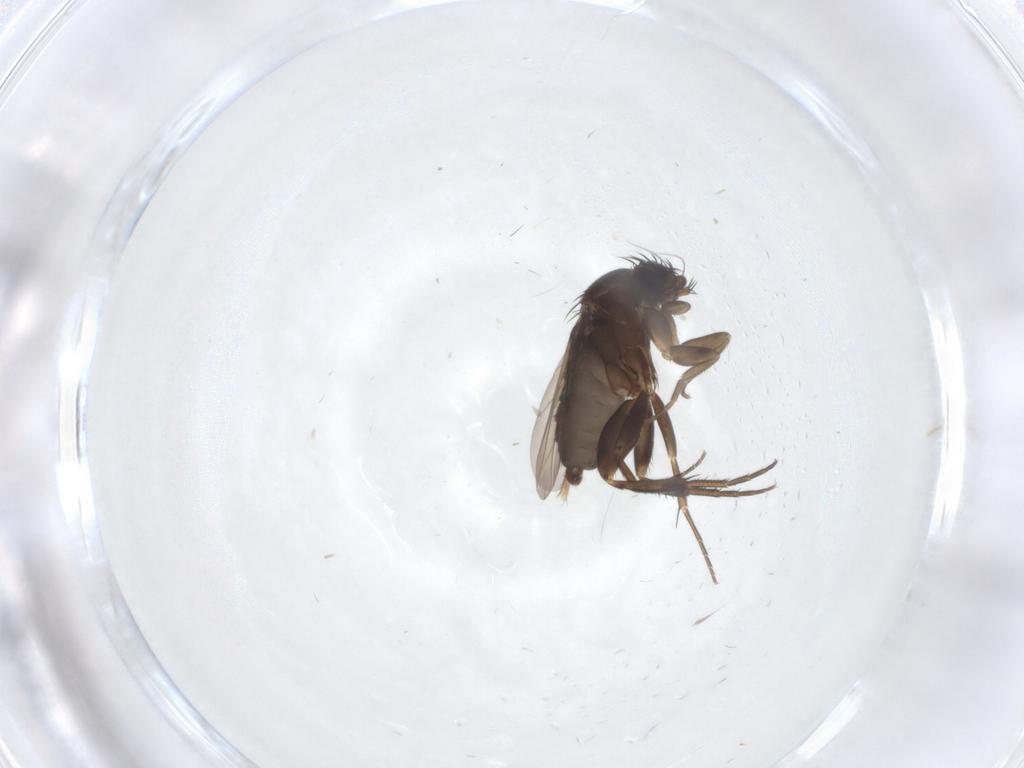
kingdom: Animalia
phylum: Arthropoda
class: Insecta
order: Diptera
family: Phoridae
